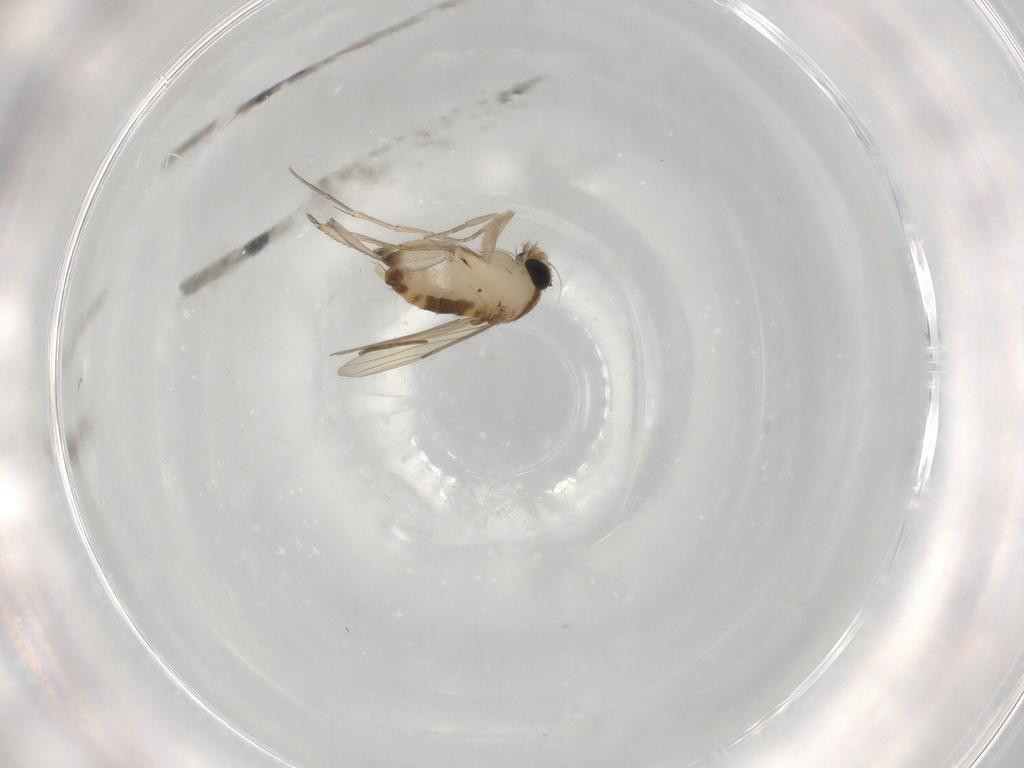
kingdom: Animalia
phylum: Arthropoda
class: Insecta
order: Diptera
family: Phoridae
